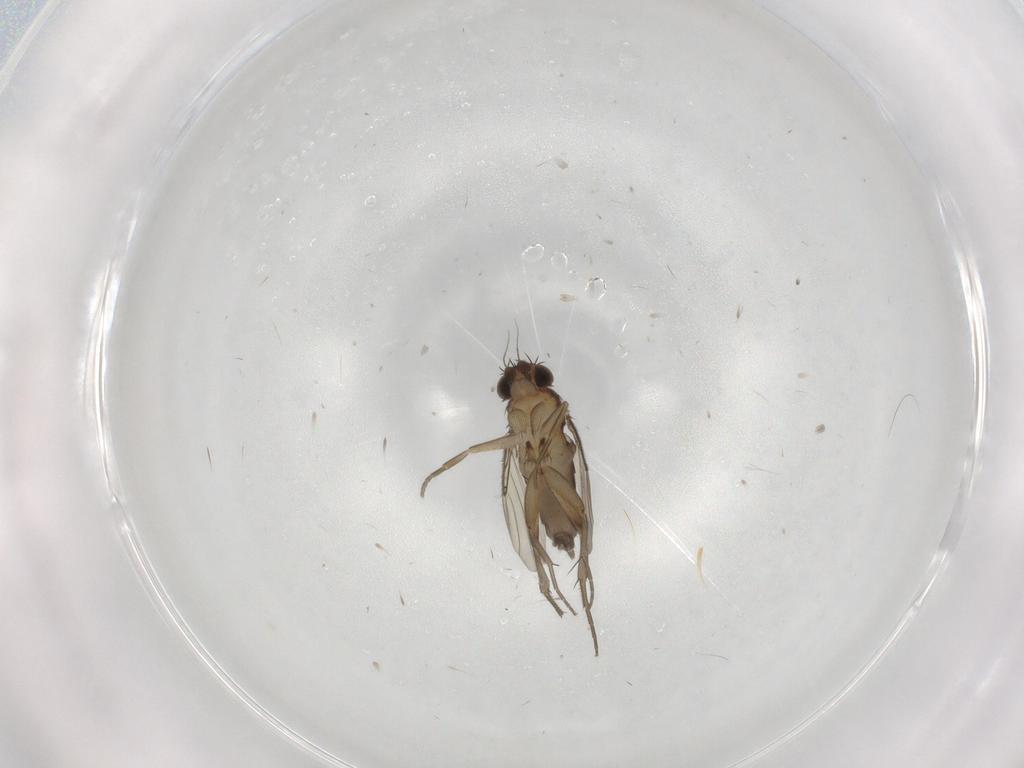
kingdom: Animalia
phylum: Arthropoda
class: Insecta
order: Diptera
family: Phoridae
